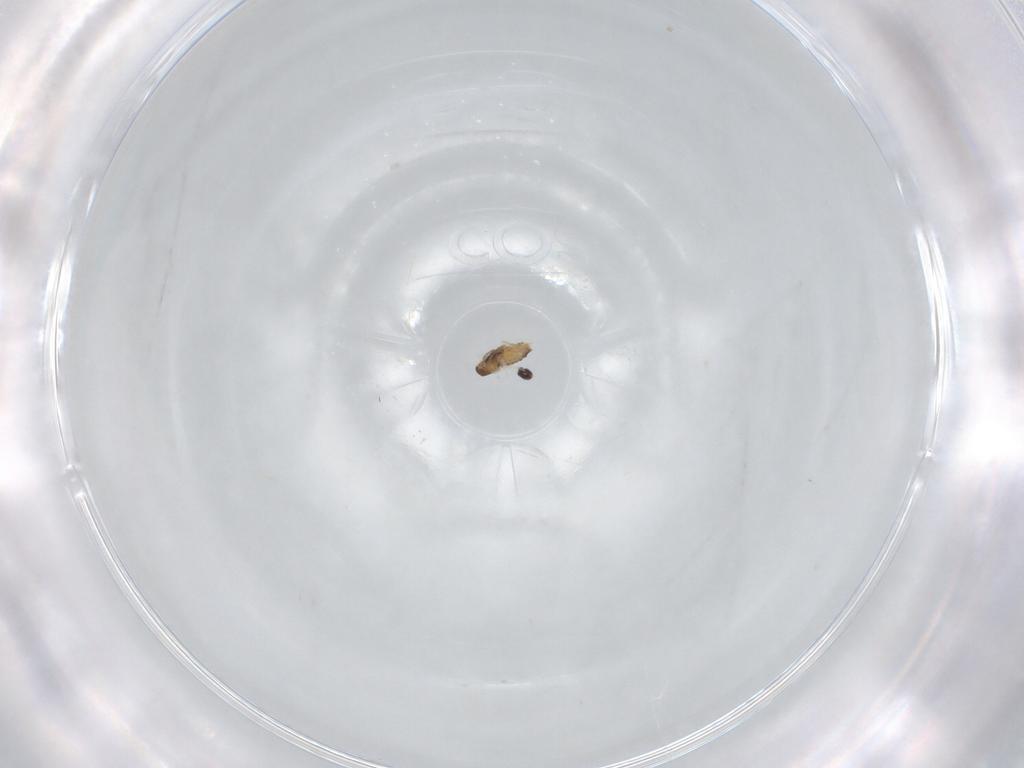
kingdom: Animalia
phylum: Arthropoda
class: Insecta
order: Diptera
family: Cecidomyiidae
